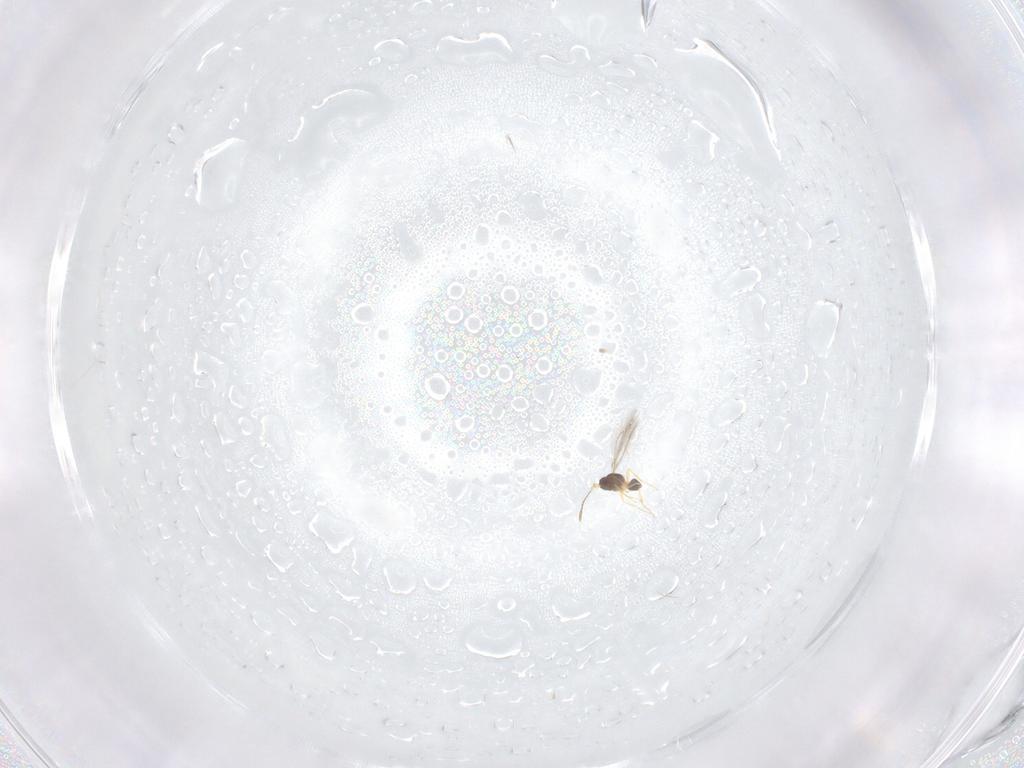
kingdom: Animalia
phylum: Arthropoda
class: Insecta
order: Hymenoptera
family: Mymaridae
